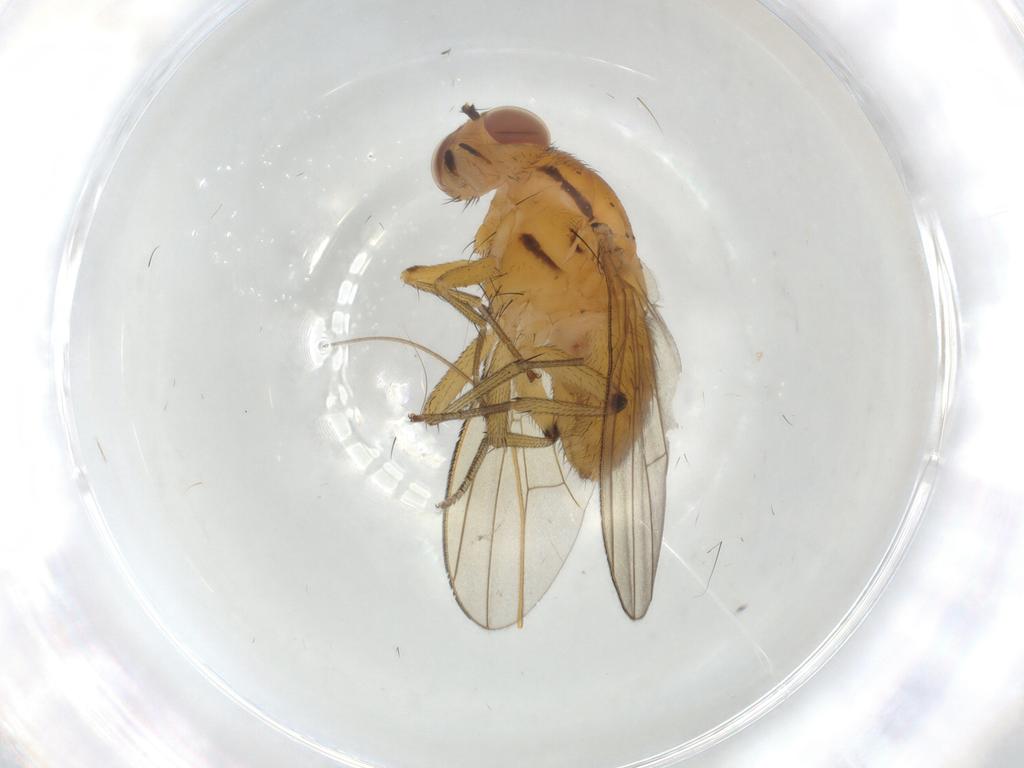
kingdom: Animalia
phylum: Arthropoda
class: Insecta
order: Diptera
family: Lauxaniidae
